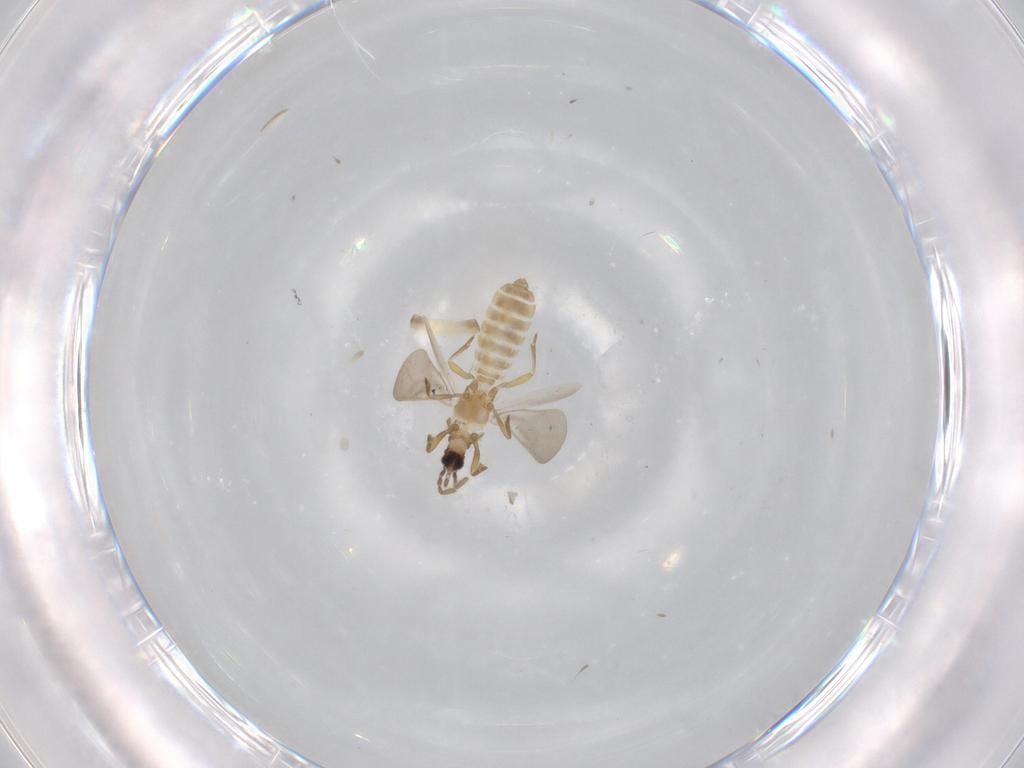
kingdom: Animalia
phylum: Arthropoda
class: Insecta
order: Hemiptera
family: Enicocephalidae
